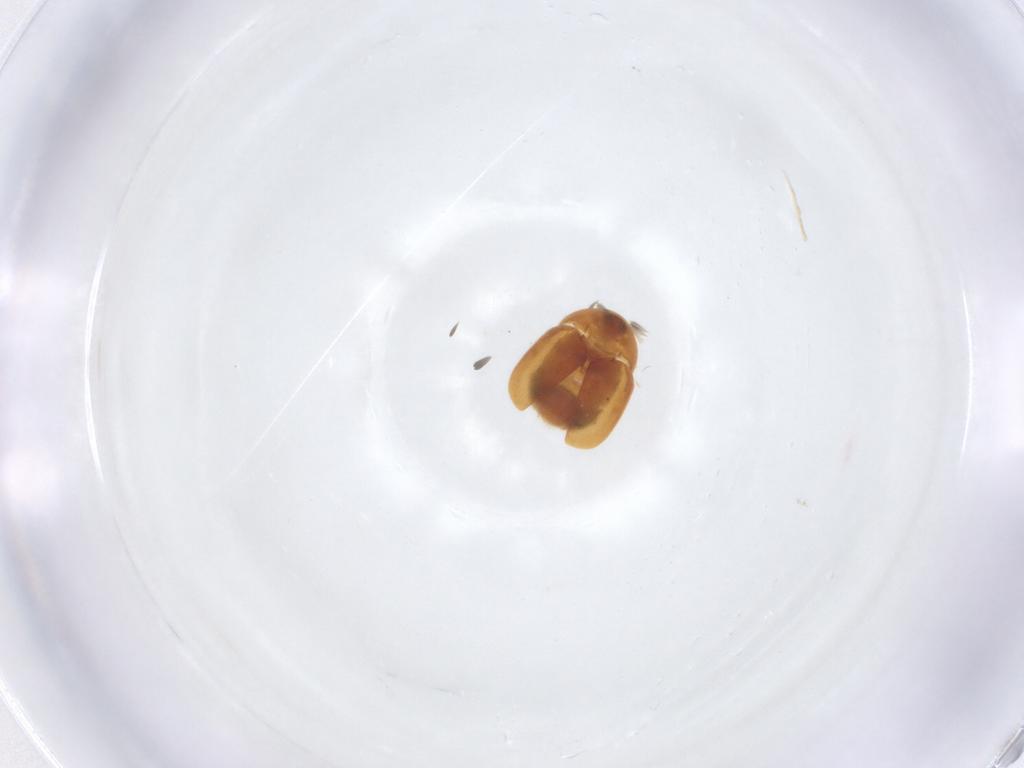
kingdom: Animalia
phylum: Arthropoda
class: Insecta
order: Coleoptera
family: Corylophidae
